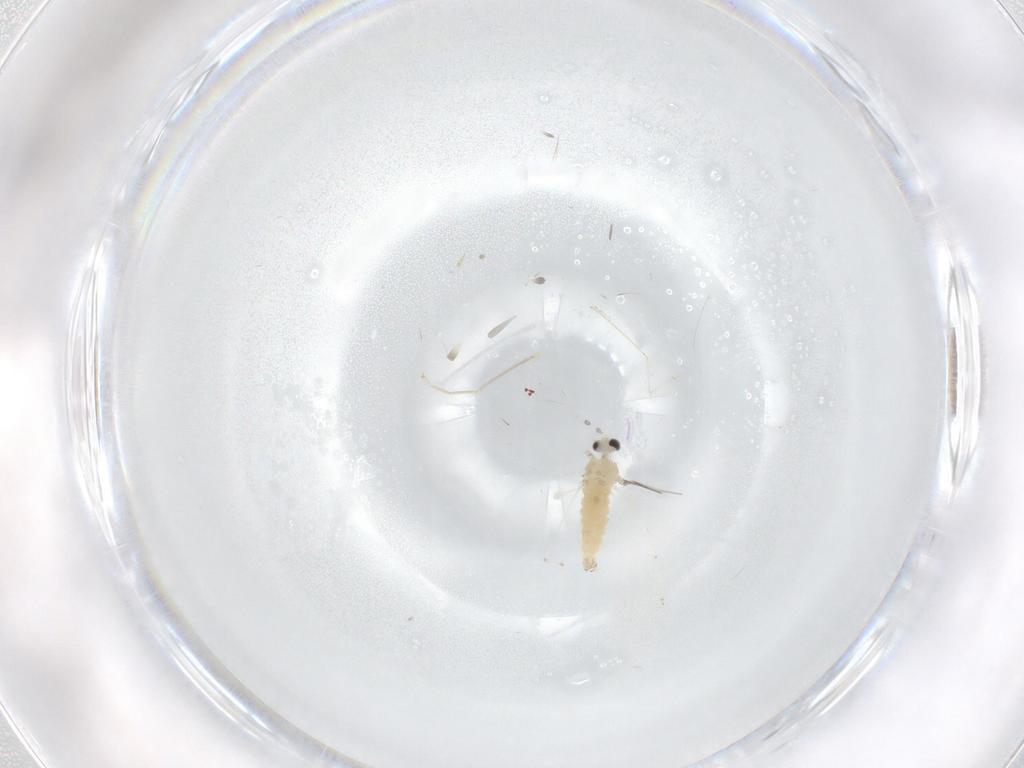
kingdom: Animalia
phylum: Arthropoda
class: Insecta
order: Diptera
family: Cecidomyiidae
